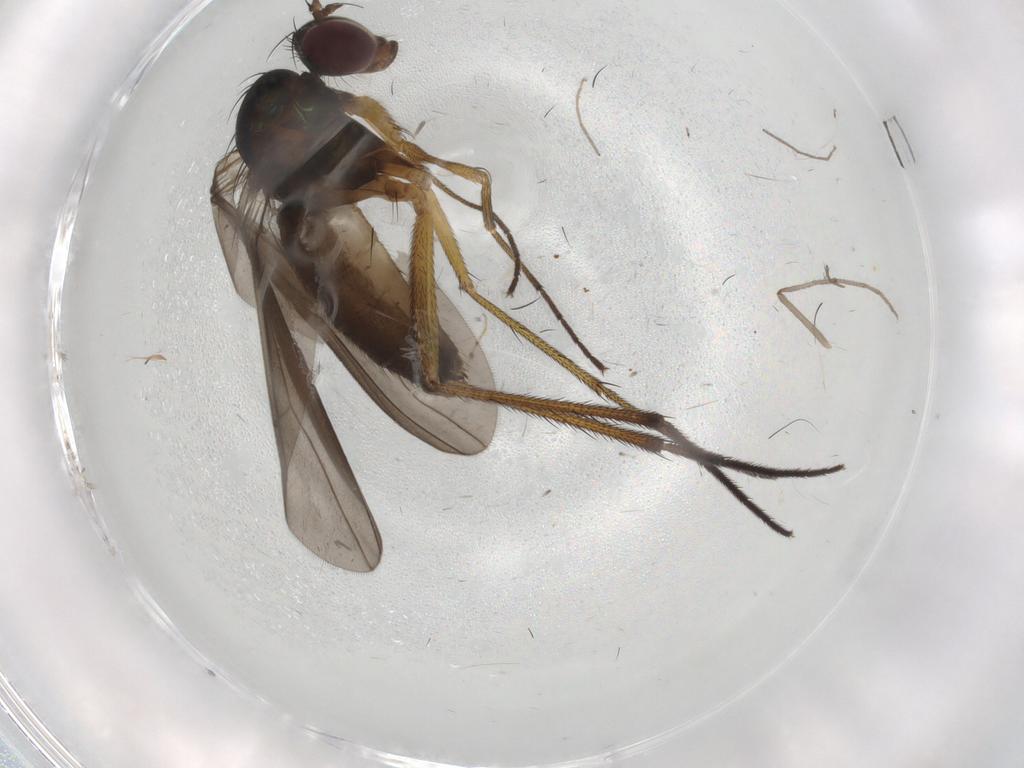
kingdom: Animalia
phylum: Arthropoda
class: Insecta
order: Diptera
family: Dolichopodidae
